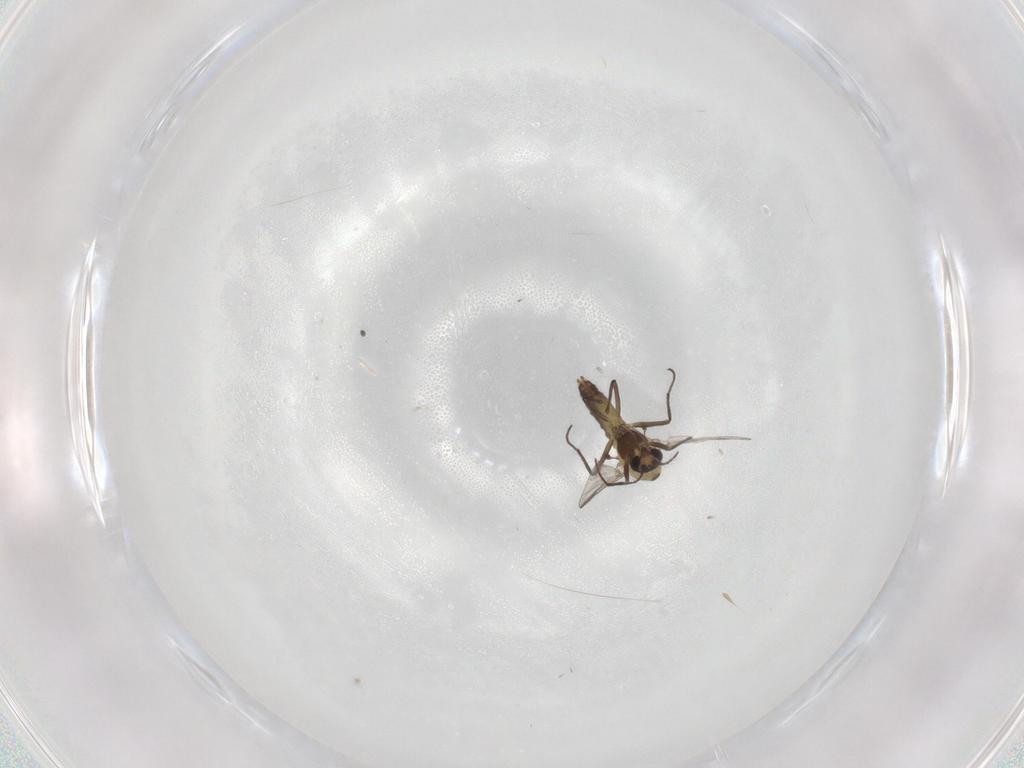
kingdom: Animalia
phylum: Arthropoda
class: Insecta
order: Diptera
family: Chironomidae
